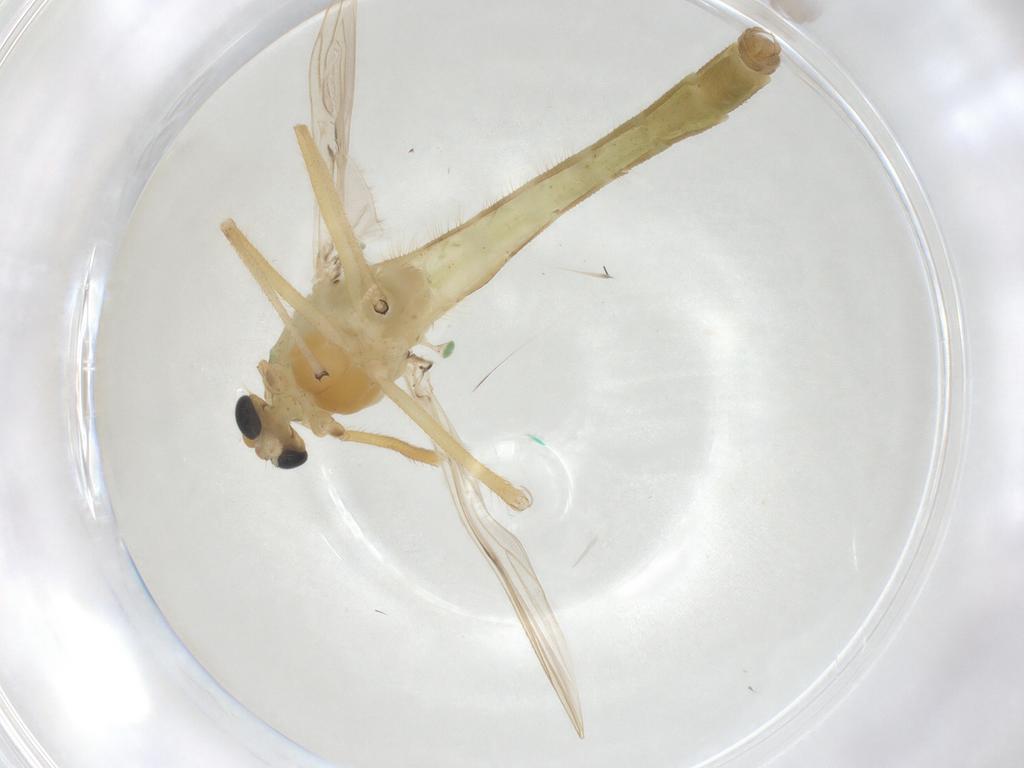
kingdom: Animalia
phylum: Arthropoda
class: Insecta
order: Diptera
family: Chironomidae
